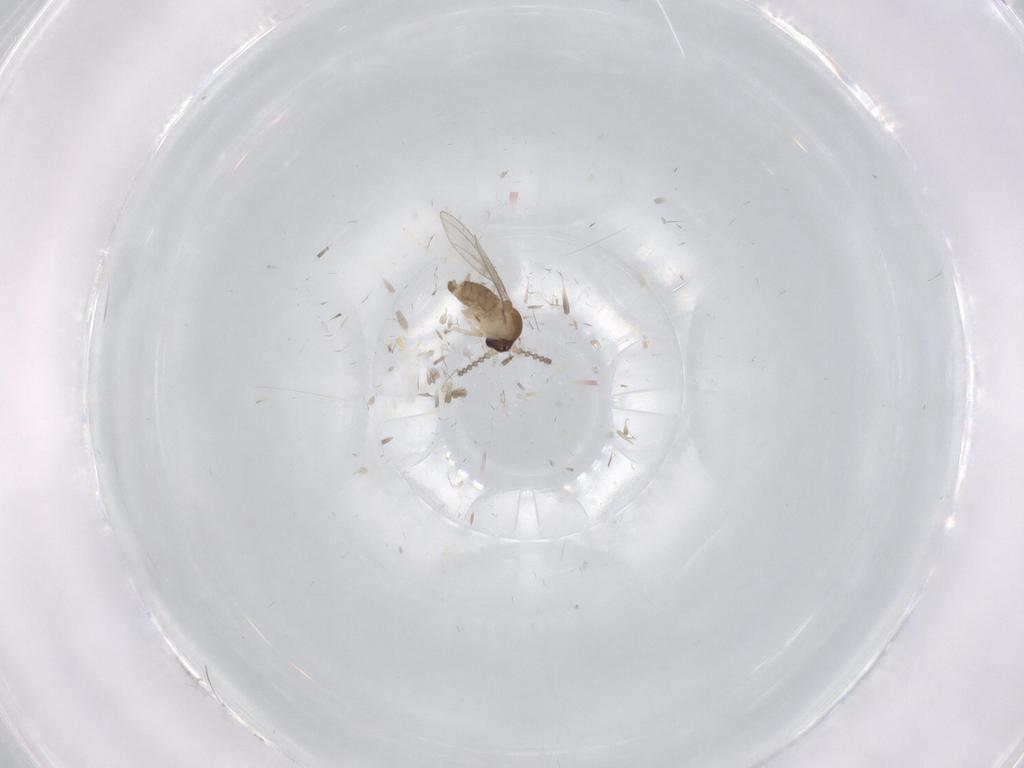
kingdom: Animalia
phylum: Arthropoda
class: Insecta
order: Diptera
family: Cecidomyiidae
